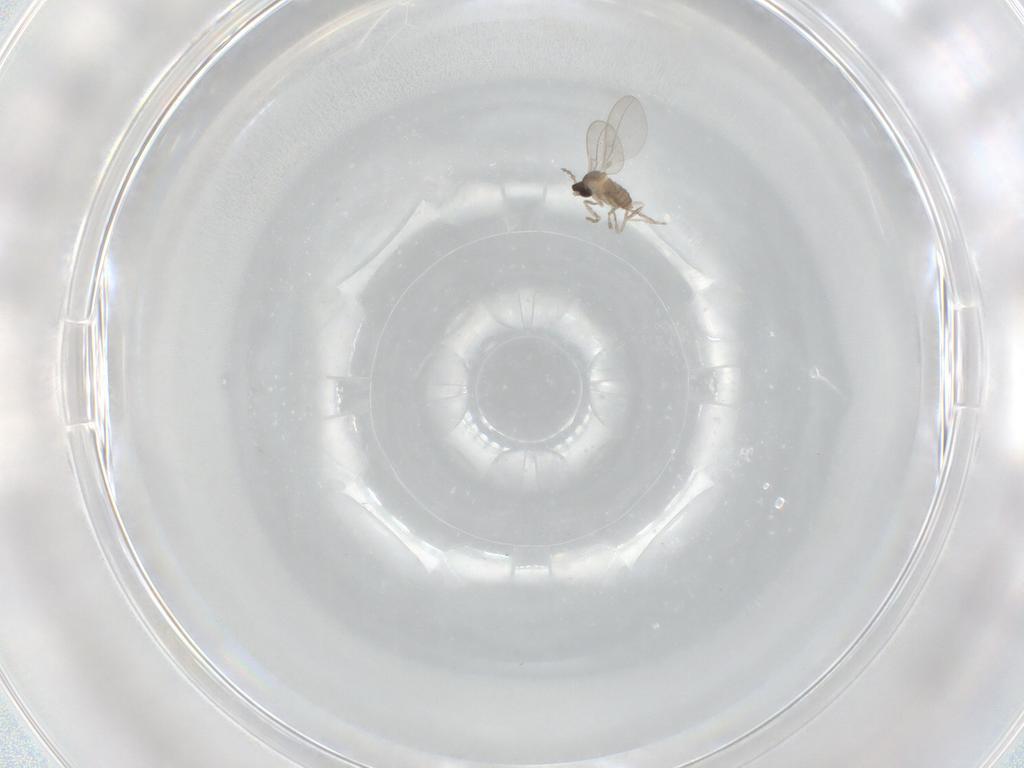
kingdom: Animalia
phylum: Arthropoda
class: Insecta
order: Diptera
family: Cecidomyiidae
